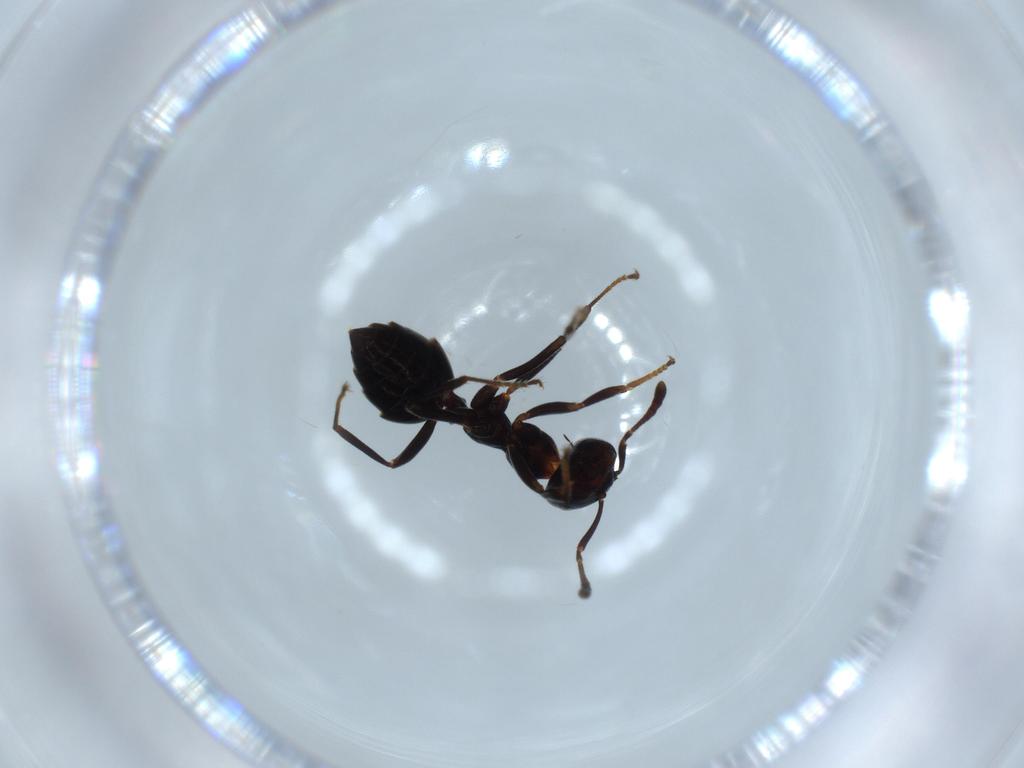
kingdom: Animalia
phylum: Arthropoda
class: Insecta
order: Hymenoptera
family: Formicidae
